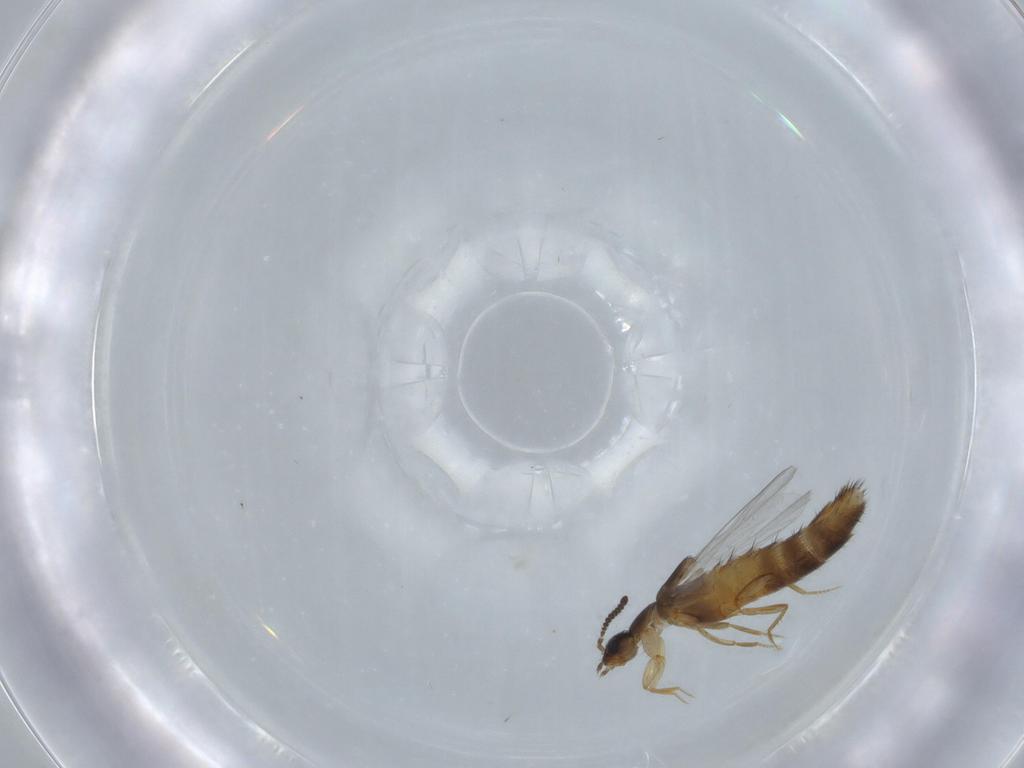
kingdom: Animalia
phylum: Arthropoda
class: Insecta
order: Coleoptera
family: Staphylinidae
